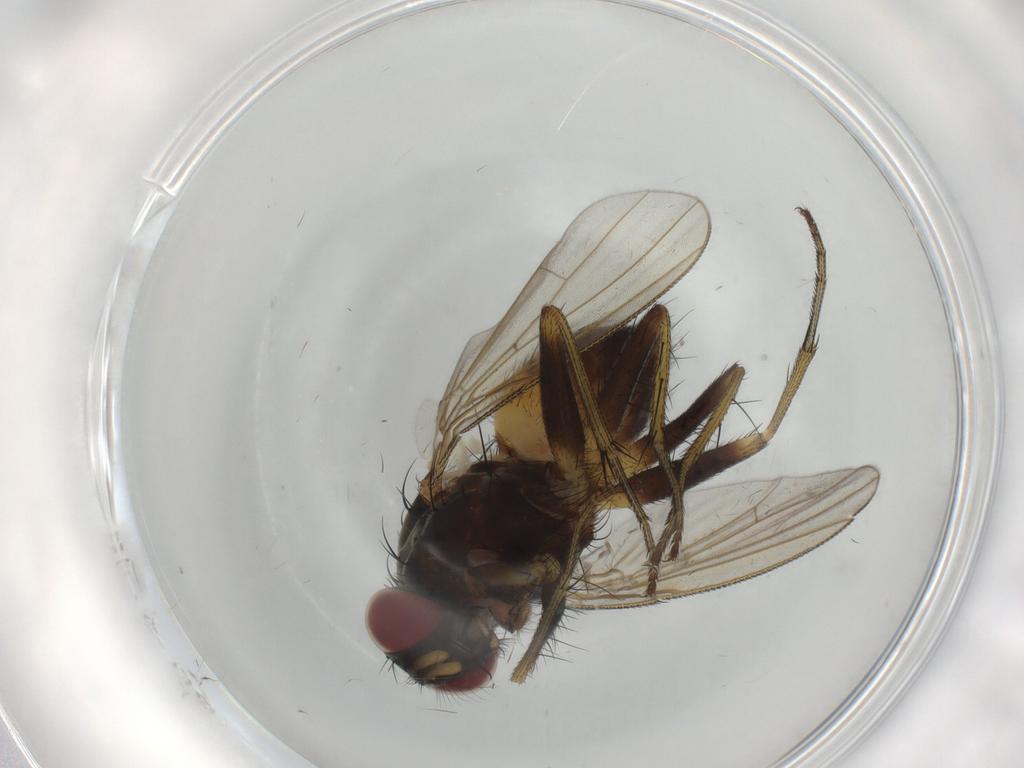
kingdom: Animalia
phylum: Arthropoda
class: Insecta
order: Diptera
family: Muscidae
